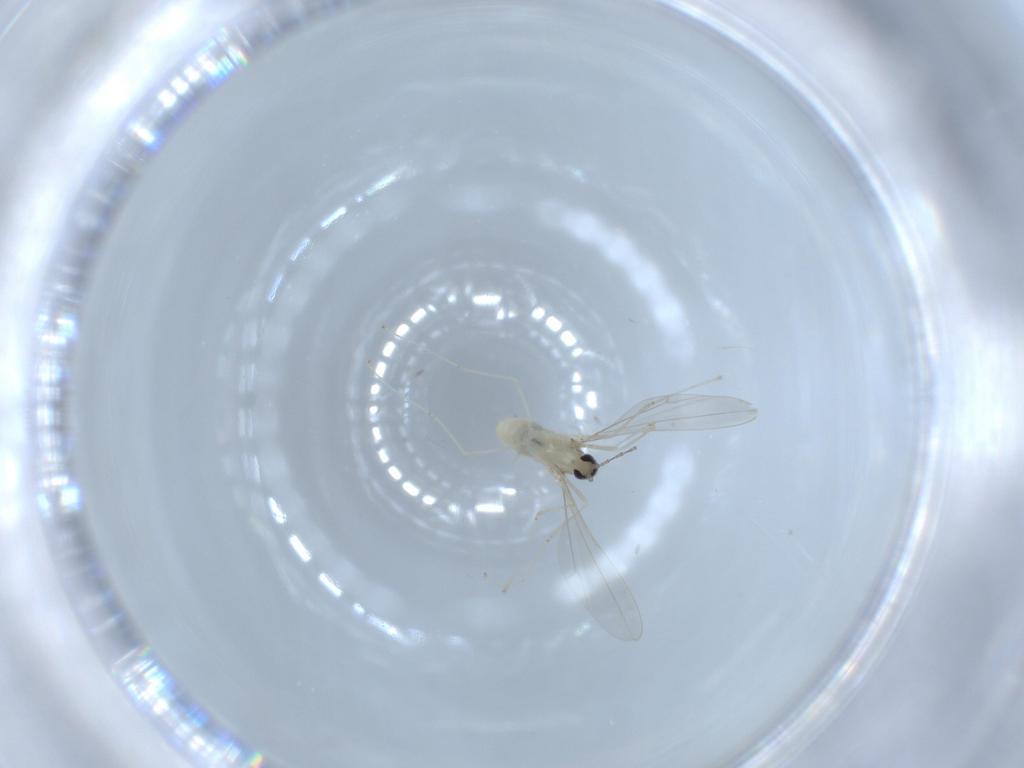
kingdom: Animalia
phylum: Arthropoda
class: Insecta
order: Diptera
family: Cecidomyiidae
